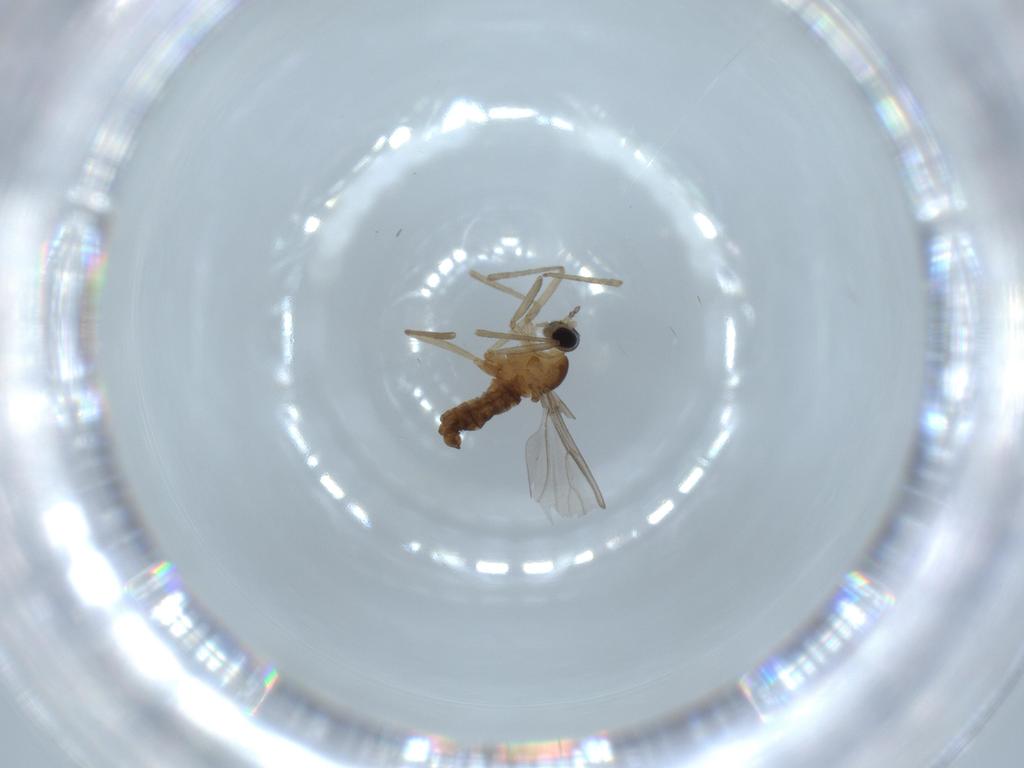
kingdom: Animalia
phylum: Arthropoda
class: Insecta
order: Diptera
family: Cecidomyiidae
